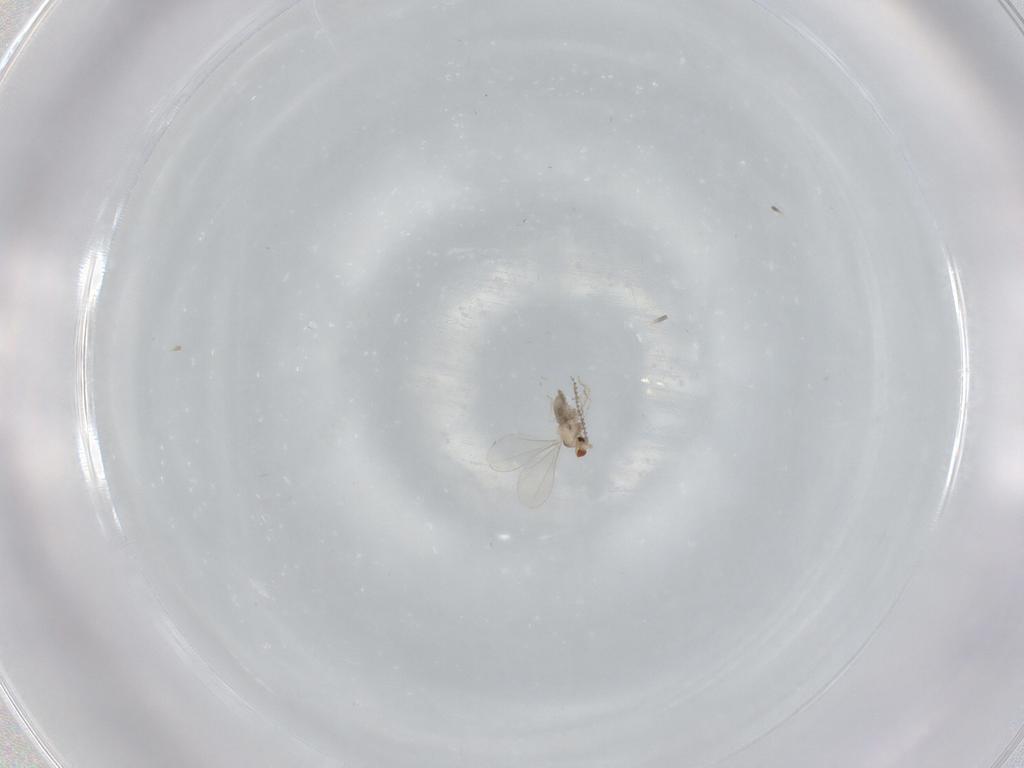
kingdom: Animalia
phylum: Arthropoda
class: Insecta
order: Diptera
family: Cecidomyiidae
